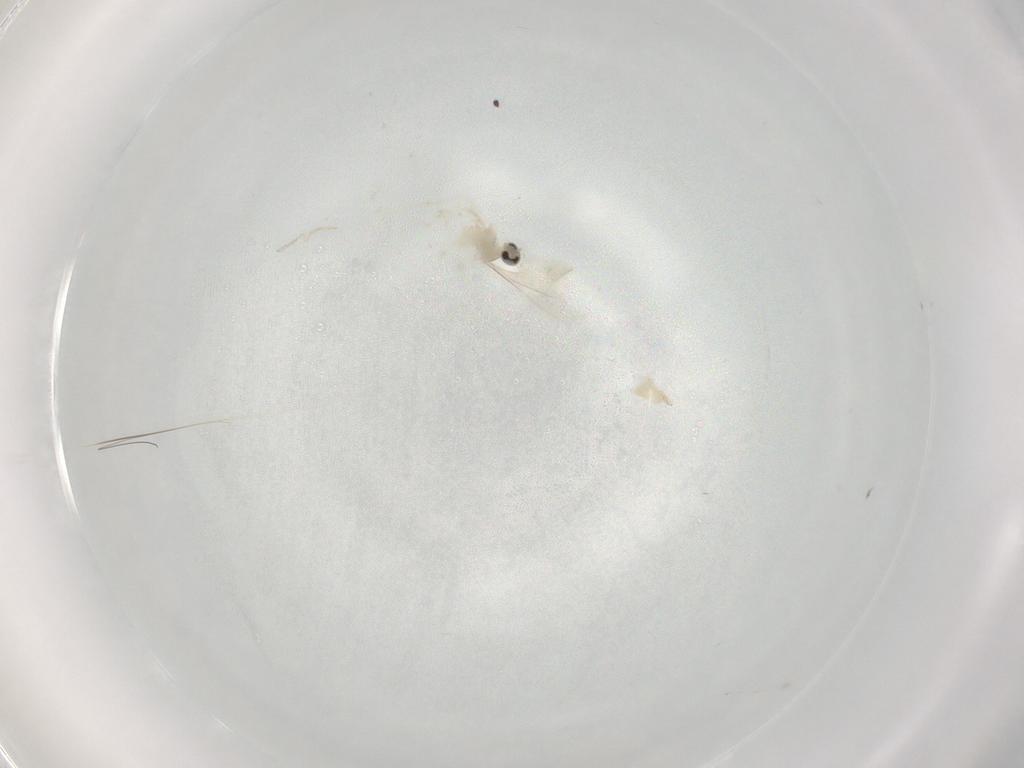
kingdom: Animalia
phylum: Arthropoda
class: Insecta
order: Diptera
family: Cecidomyiidae
